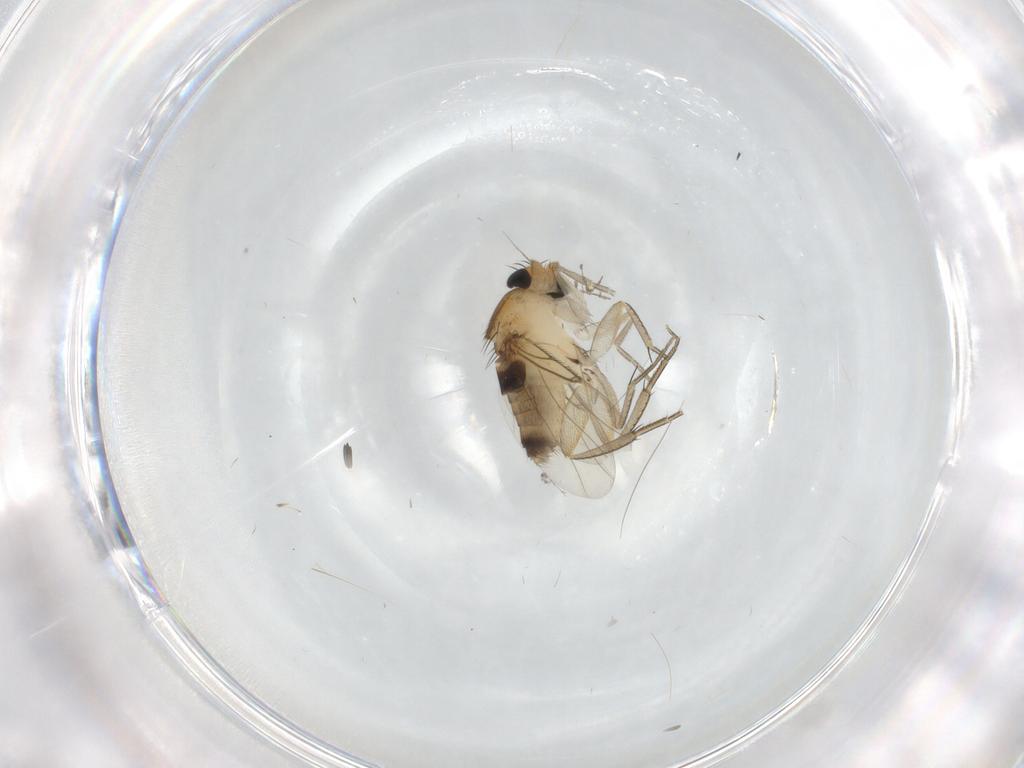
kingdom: Animalia
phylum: Arthropoda
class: Insecta
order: Diptera
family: Phoridae
